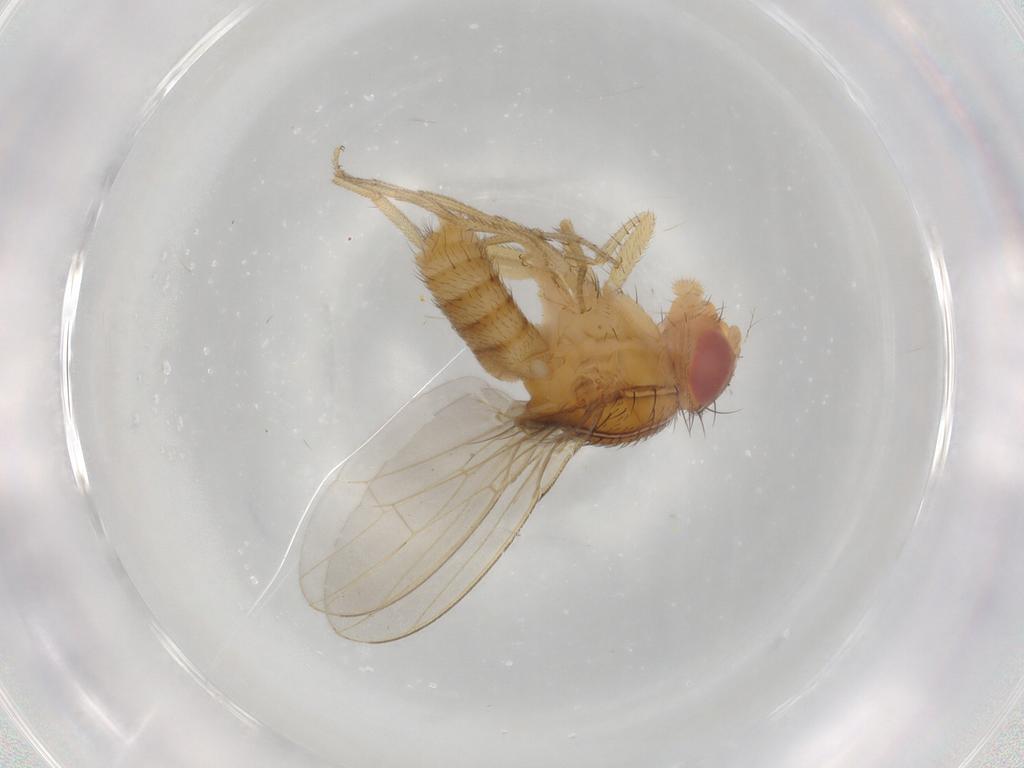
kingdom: Animalia
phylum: Arthropoda
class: Insecta
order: Diptera
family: Drosophilidae
